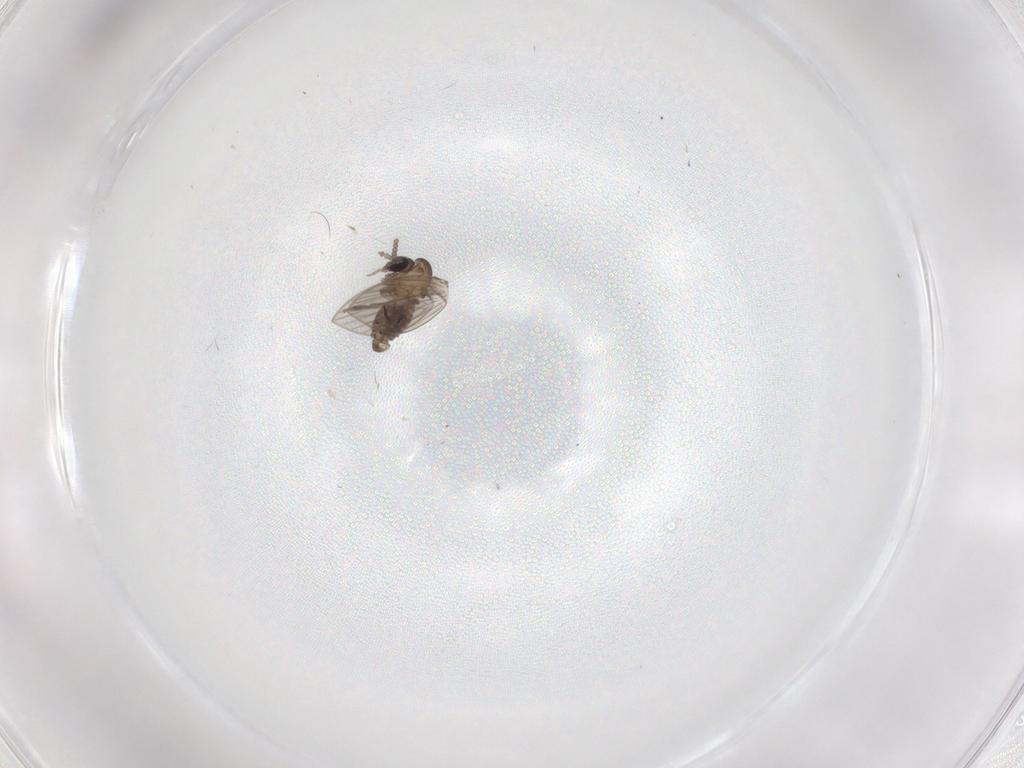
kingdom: Animalia
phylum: Arthropoda
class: Insecta
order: Diptera
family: Psychodidae
